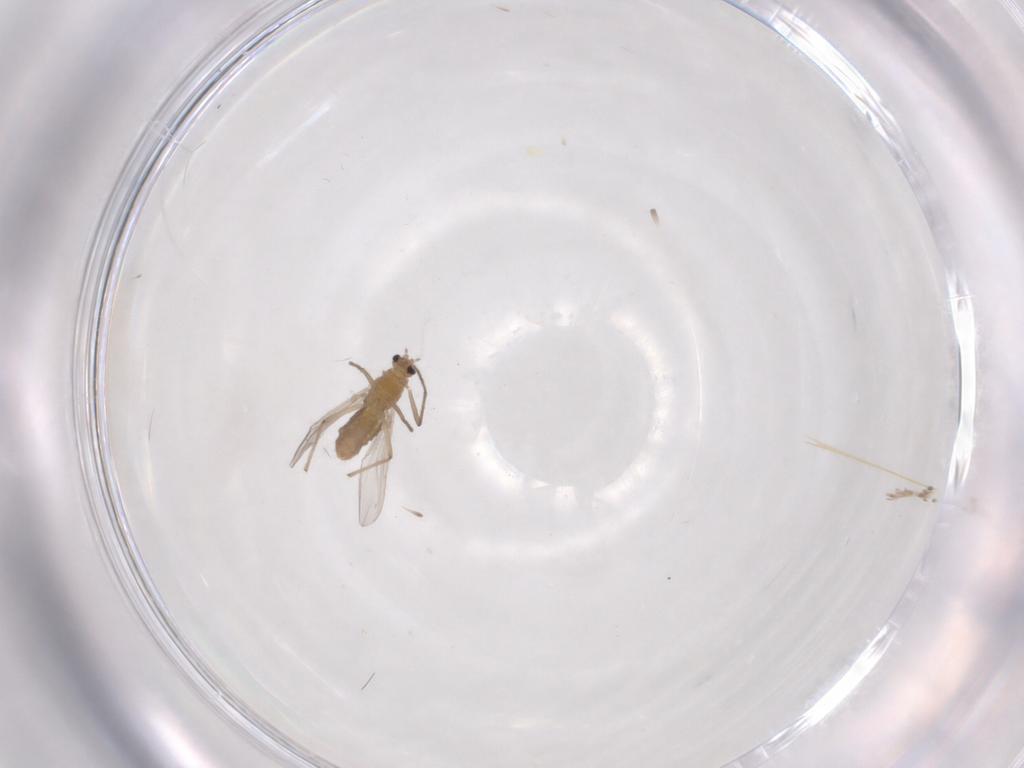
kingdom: Animalia
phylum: Arthropoda
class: Insecta
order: Diptera
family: Chironomidae
